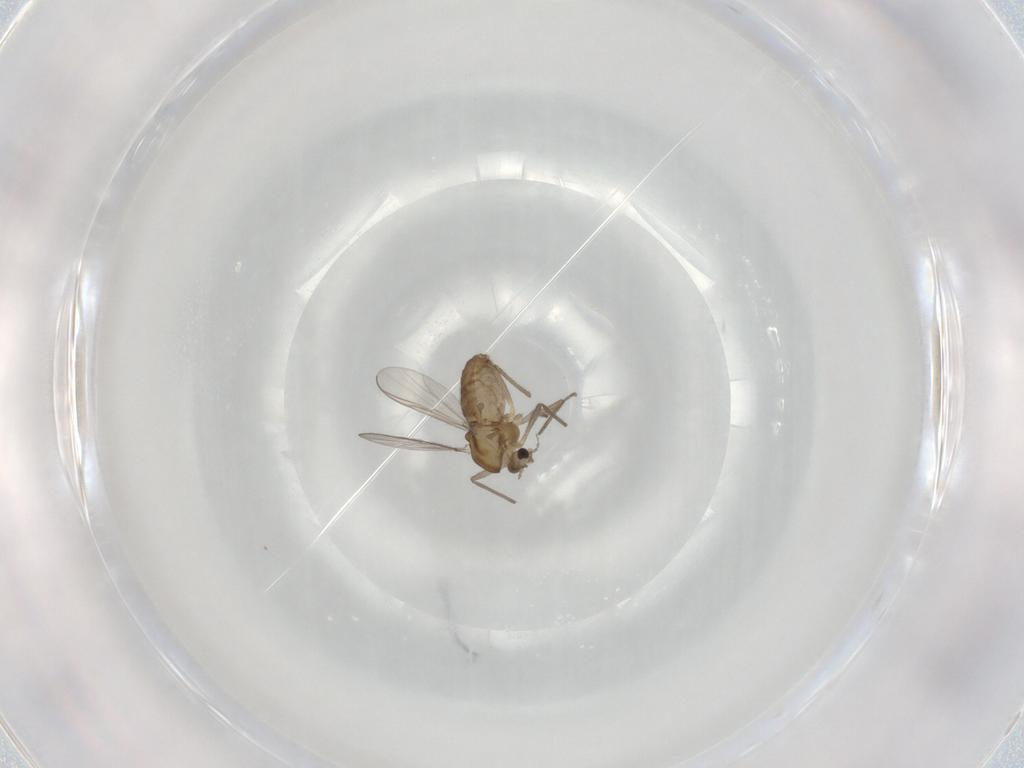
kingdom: Animalia
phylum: Arthropoda
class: Insecta
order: Diptera
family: Chironomidae
